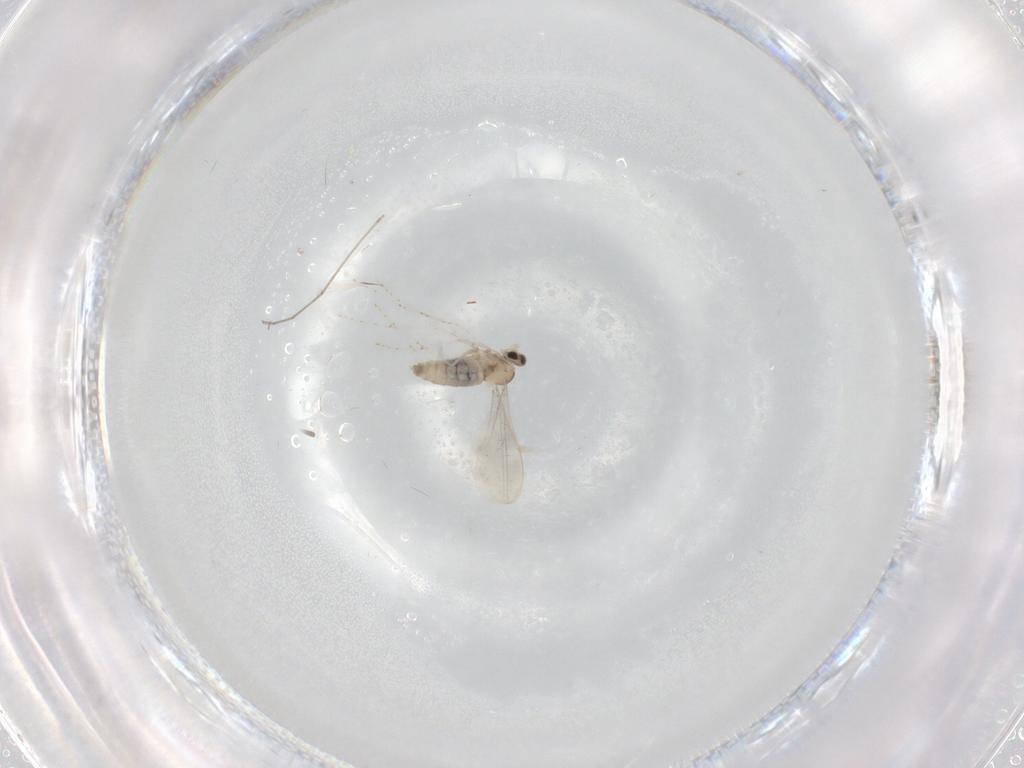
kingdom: Animalia
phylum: Arthropoda
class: Insecta
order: Diptera
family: Cecidomyiidae
